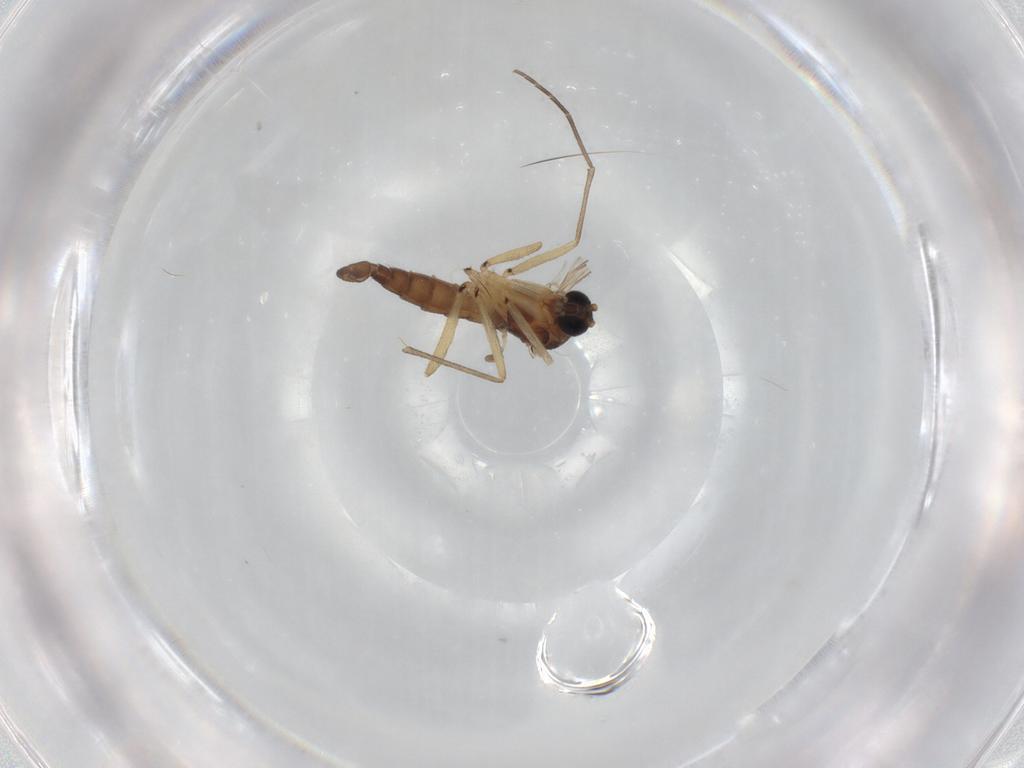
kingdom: Animalia
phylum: Arthropoda
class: Insecta
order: Diptera
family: Sciaridae
